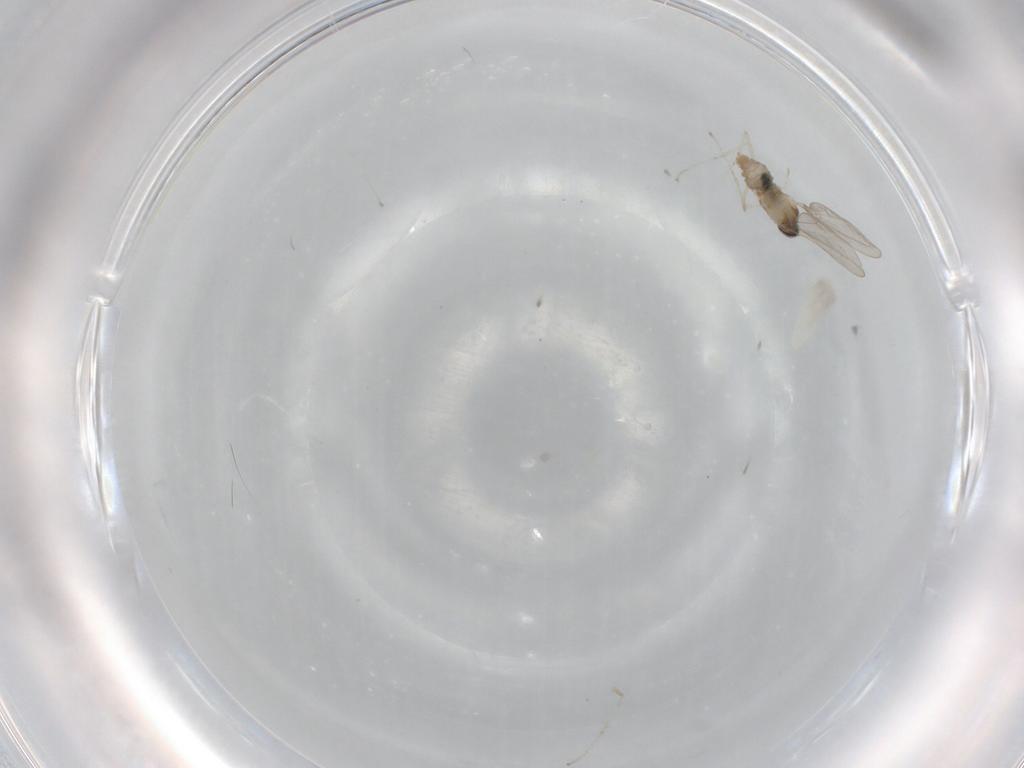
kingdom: Animalia
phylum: Arthropoda
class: Insecta
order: Diptera
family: Cecidomyiidae
